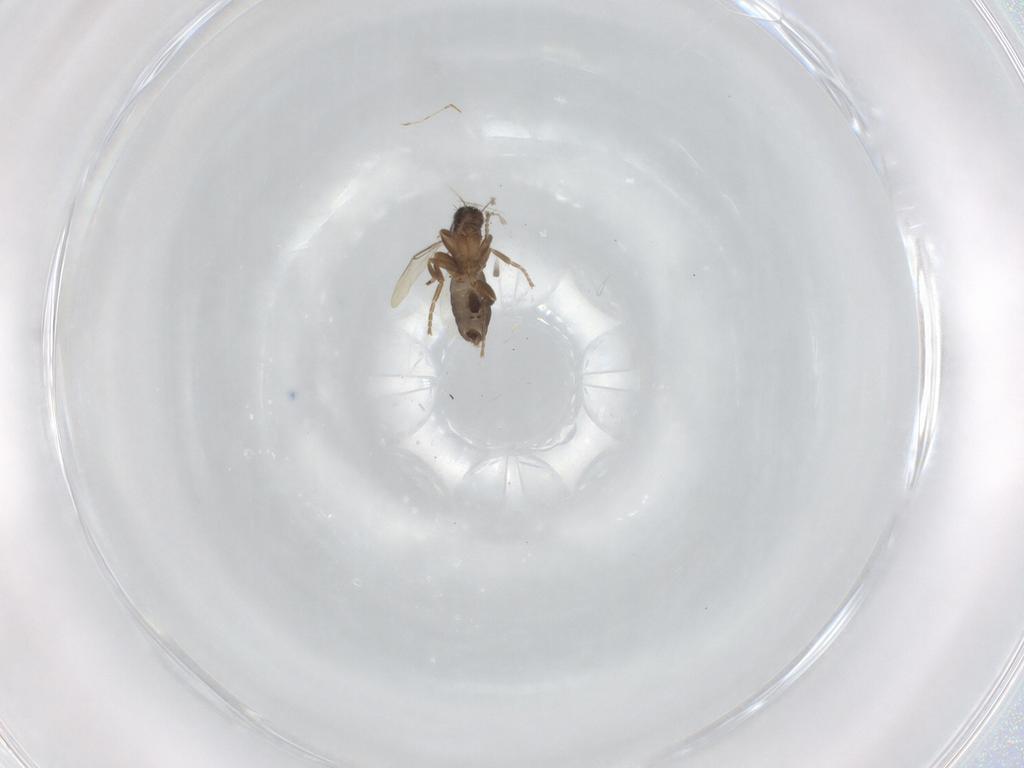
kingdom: Animalia
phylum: Arthropoda
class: Insecta
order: Diptera
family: Phoridae
